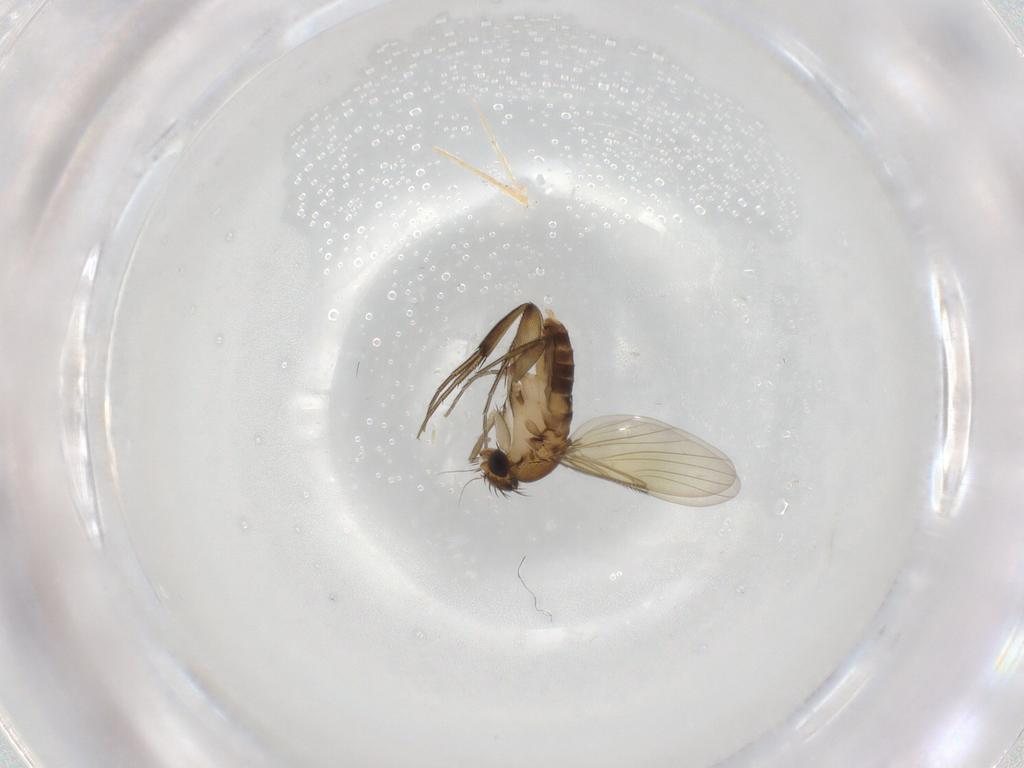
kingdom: Animalia
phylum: Arthropoda
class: Insecta
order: Diptera
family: Phoridae
